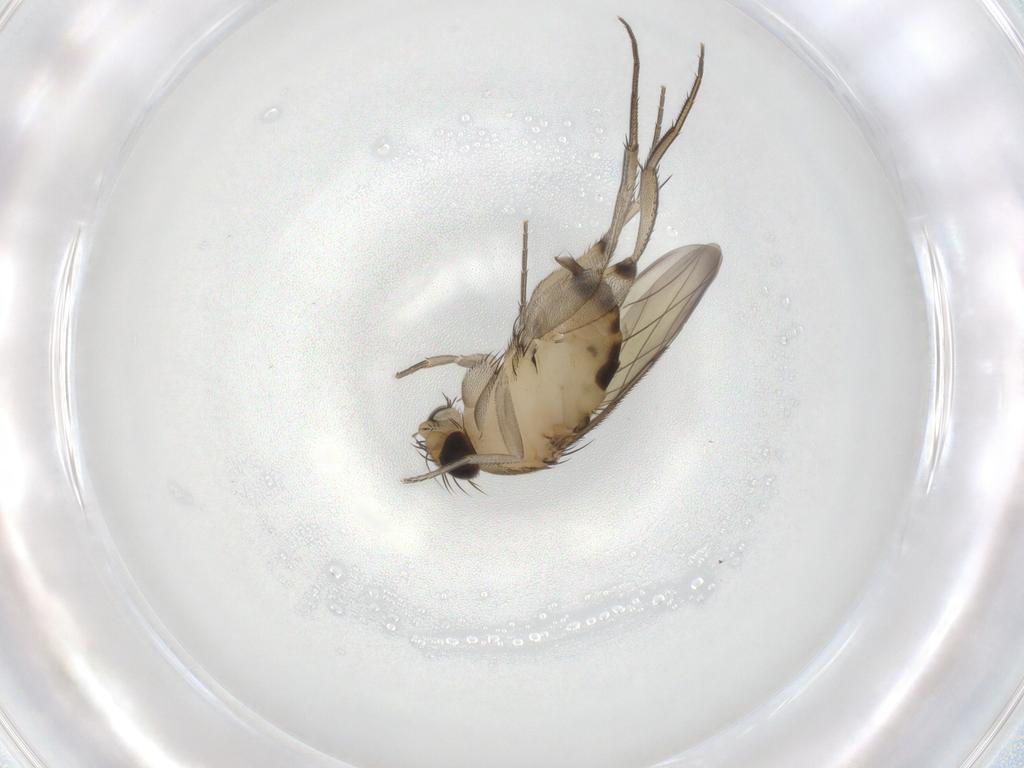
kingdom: Animalia
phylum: Arthropoda
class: Insecta
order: Diptera
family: Phoridae
